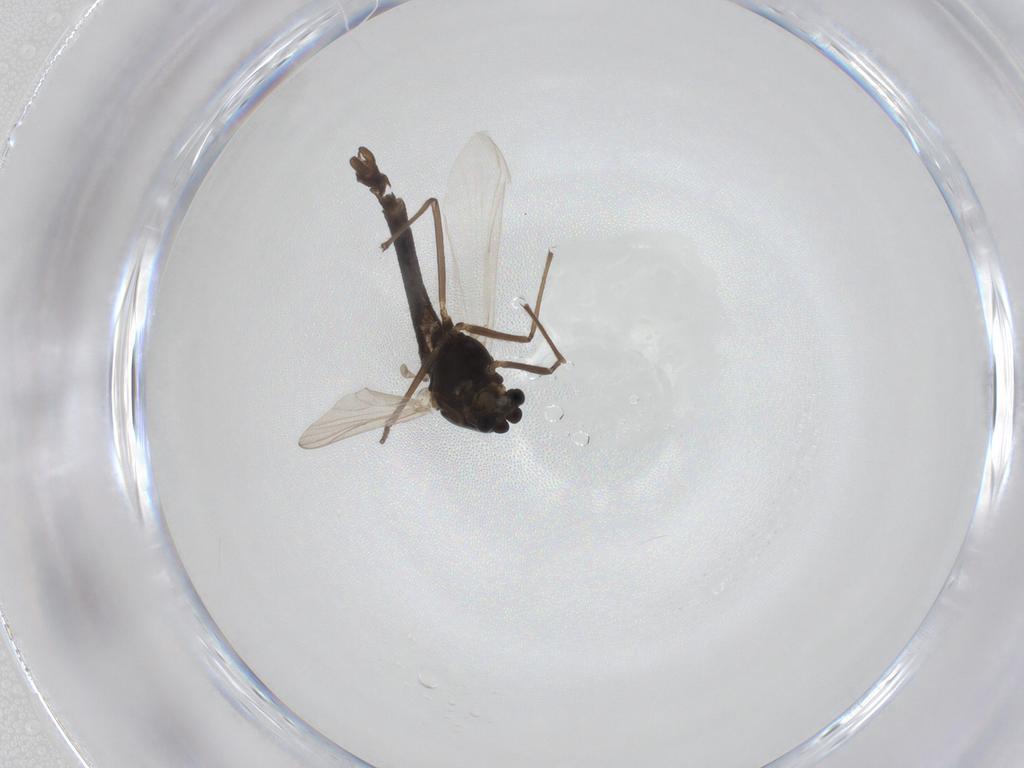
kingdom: Animalia
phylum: Arthropoda
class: Insecta
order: Diptera
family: Chironomidae
